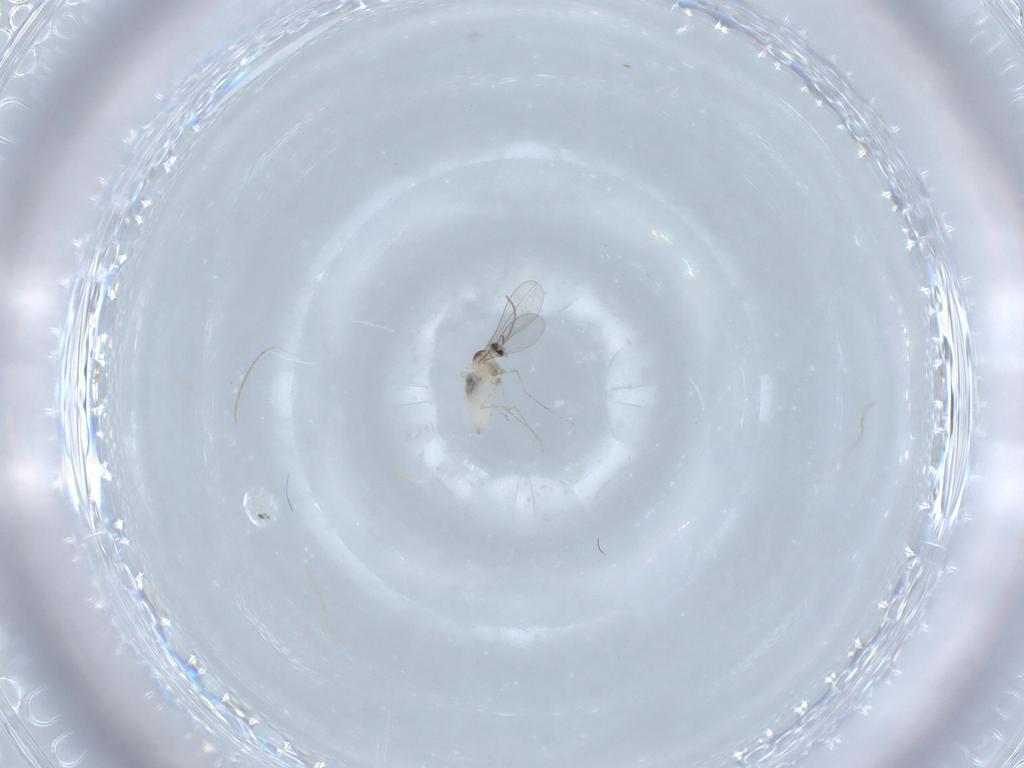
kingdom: Animalia
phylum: Arthropoda
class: Insecta
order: Diptera
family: Cecidomyiidae
